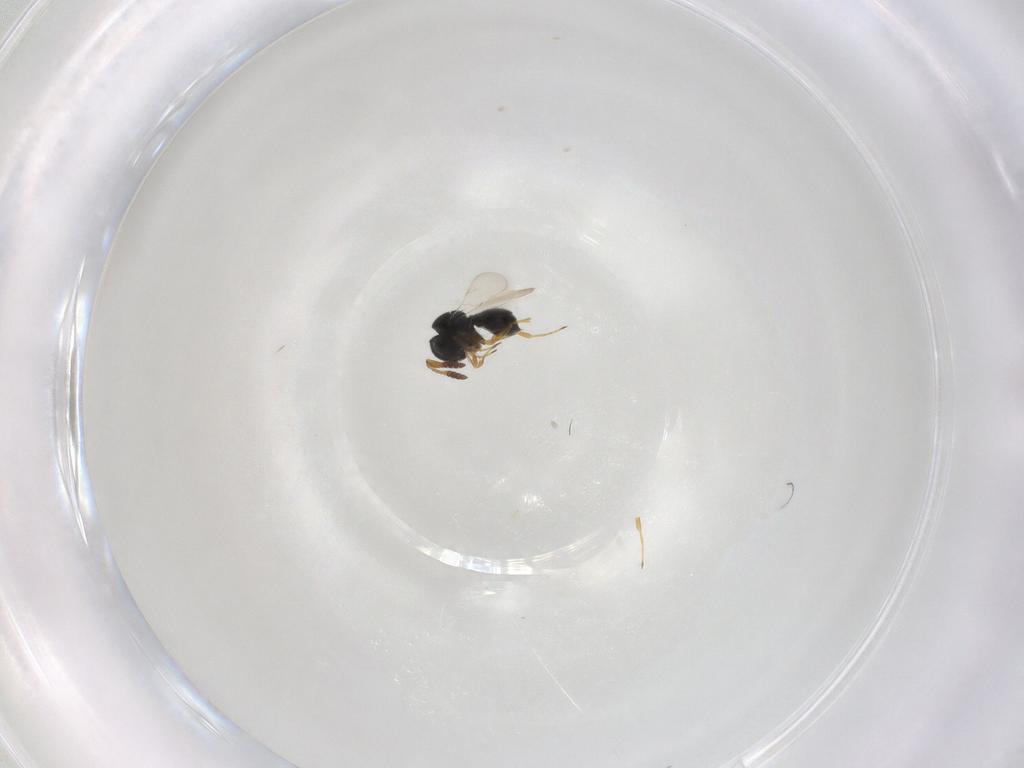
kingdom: Animalia
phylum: Arthropoda
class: Insecta
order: Hymenoptera
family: Scelionidae
